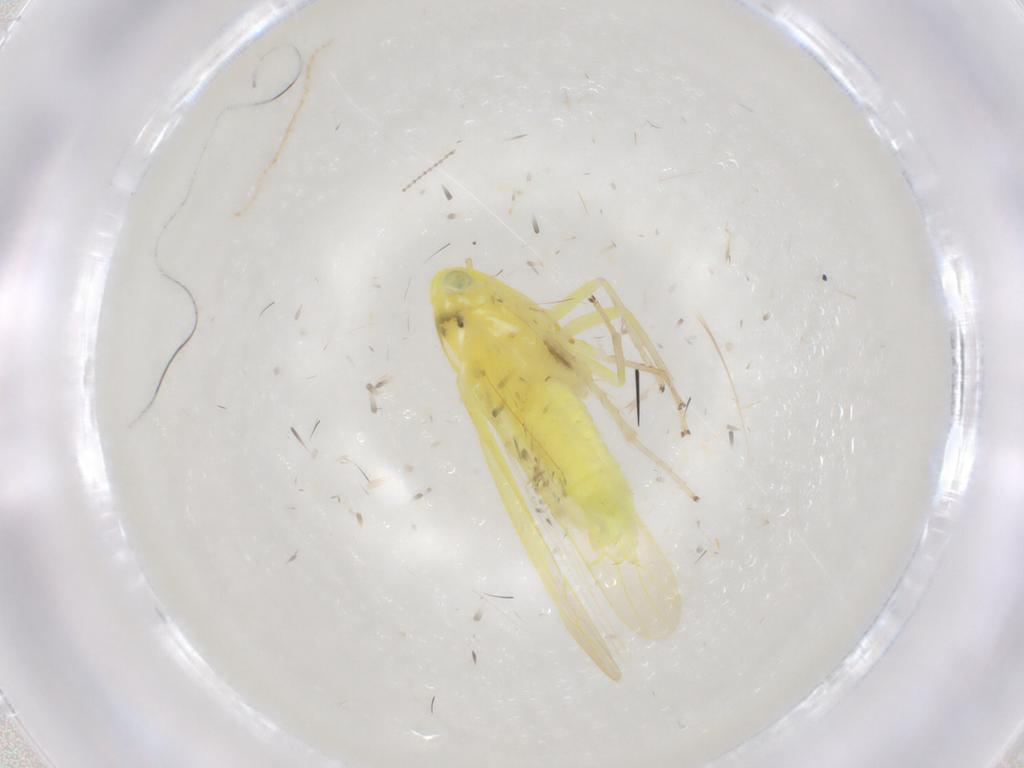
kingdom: Animalia
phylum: Arthropoda
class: Insecta
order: Hemiptera
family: Cicadellidae
